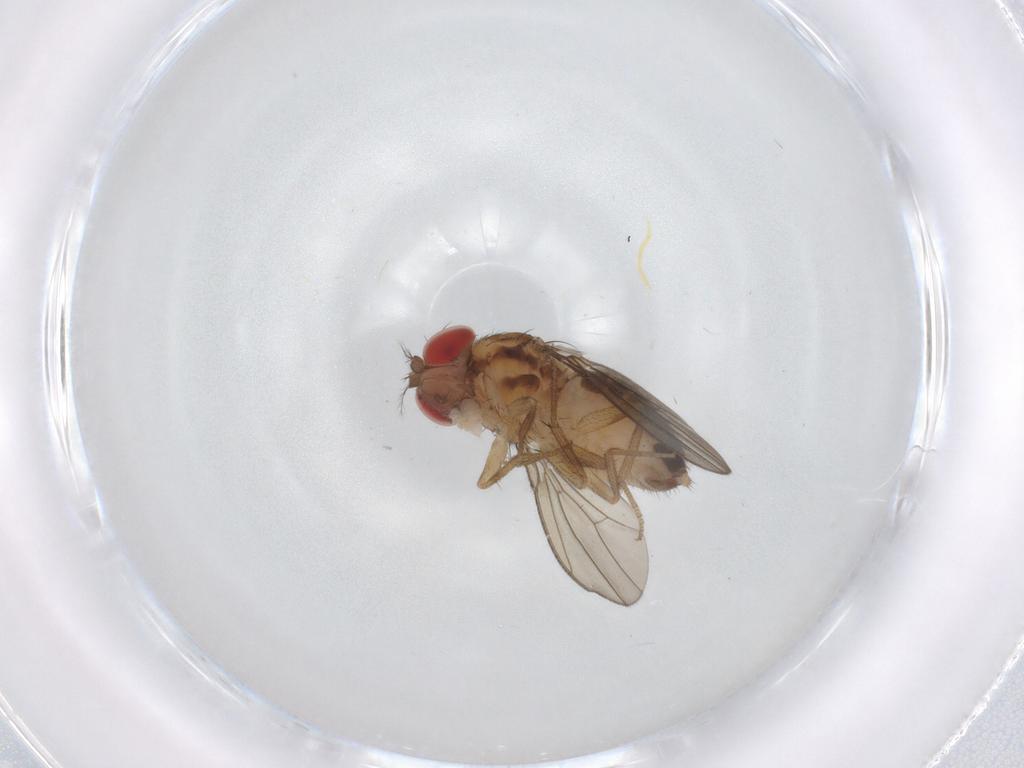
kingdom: Animalia
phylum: Arthropoda
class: Insecta
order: Diptera
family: Drosophilidae
